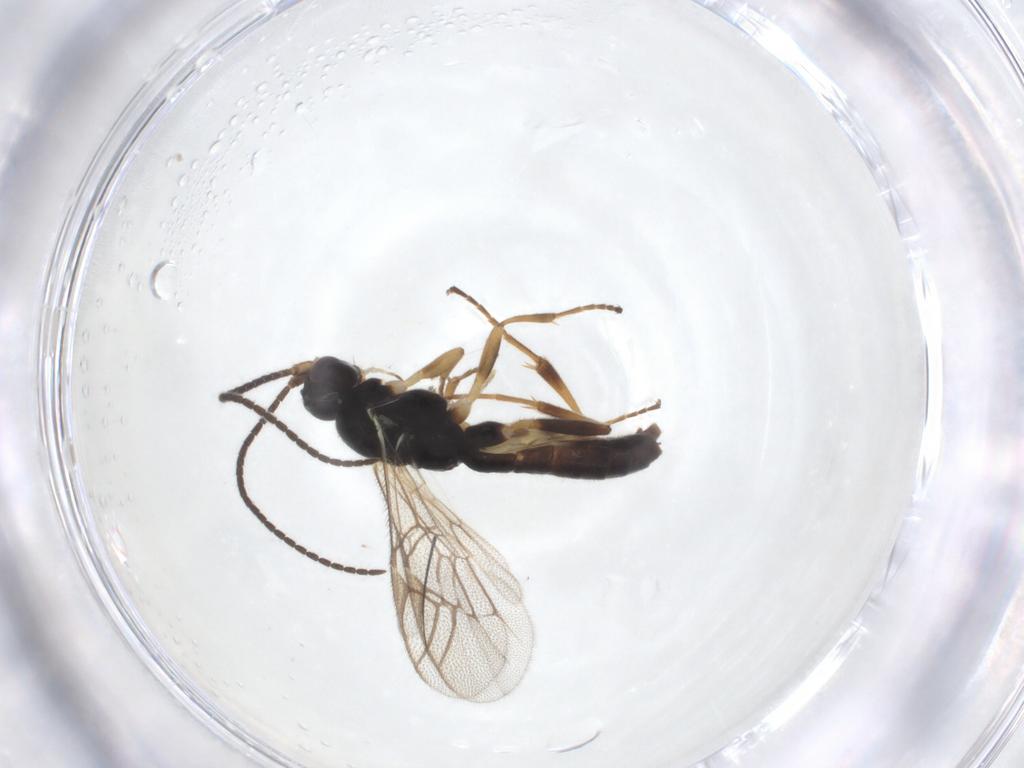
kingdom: Animalia
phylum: Arthropoda
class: Insecta
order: Hymenoptera
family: Ichneumonidae
